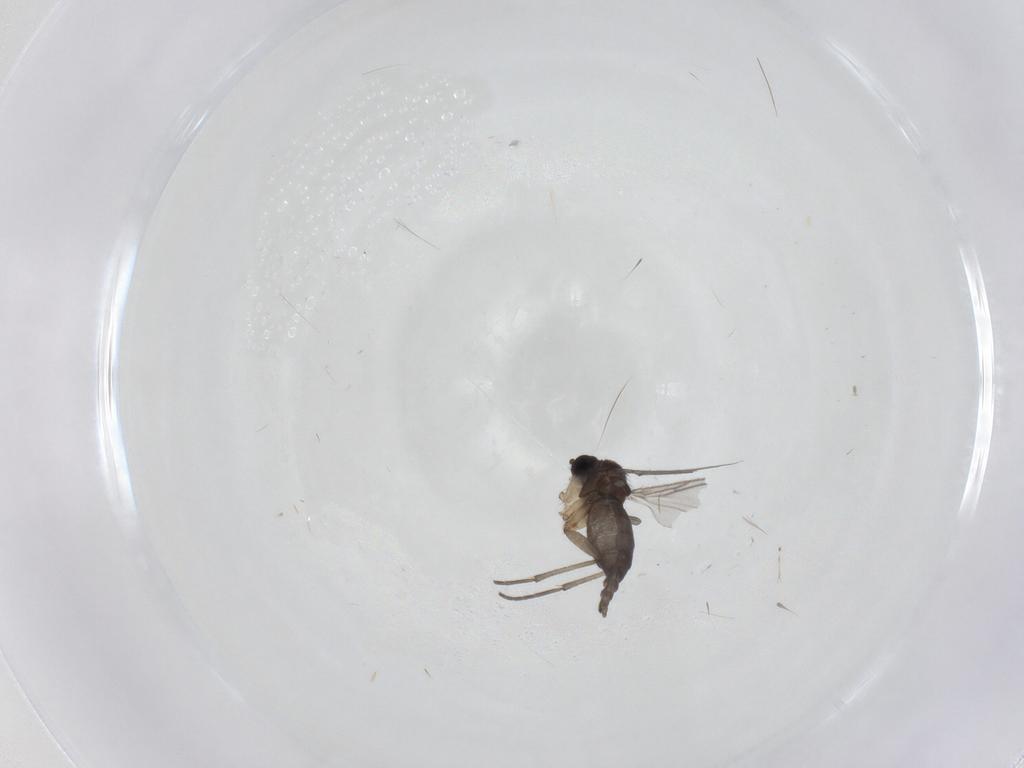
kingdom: Animalia
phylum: Arthropoda
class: Insecta
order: Diptera
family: Sciaridae
